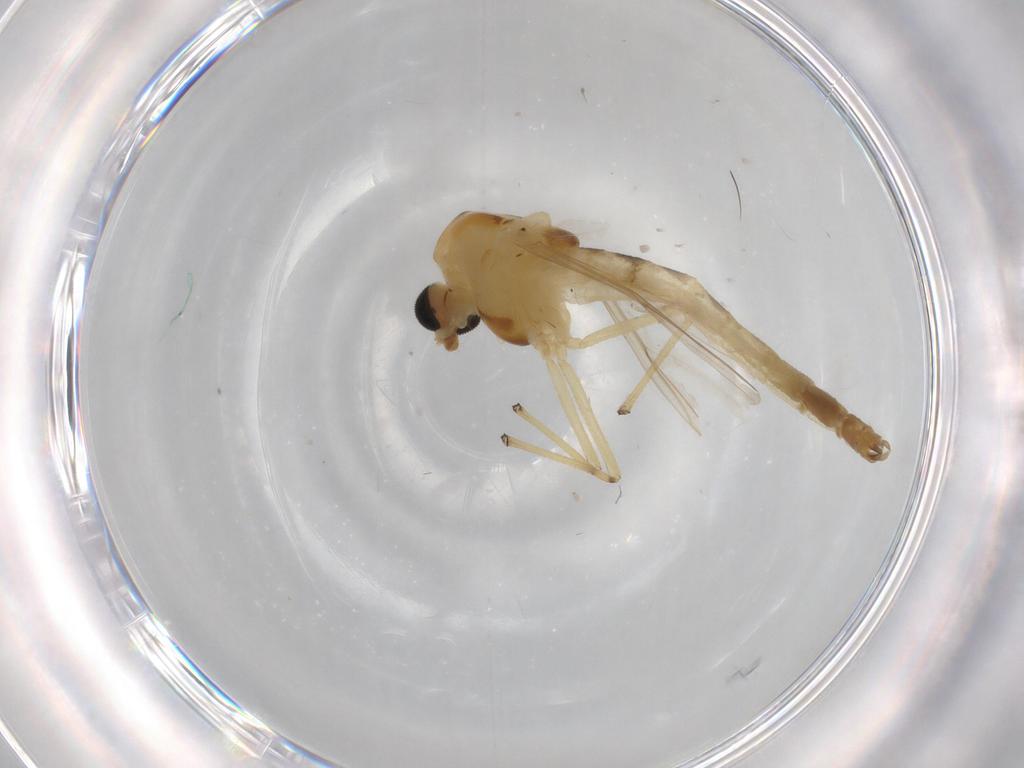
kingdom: Animalia
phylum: Arthropoda
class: Insecta
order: Diptera
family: Chironomidae
